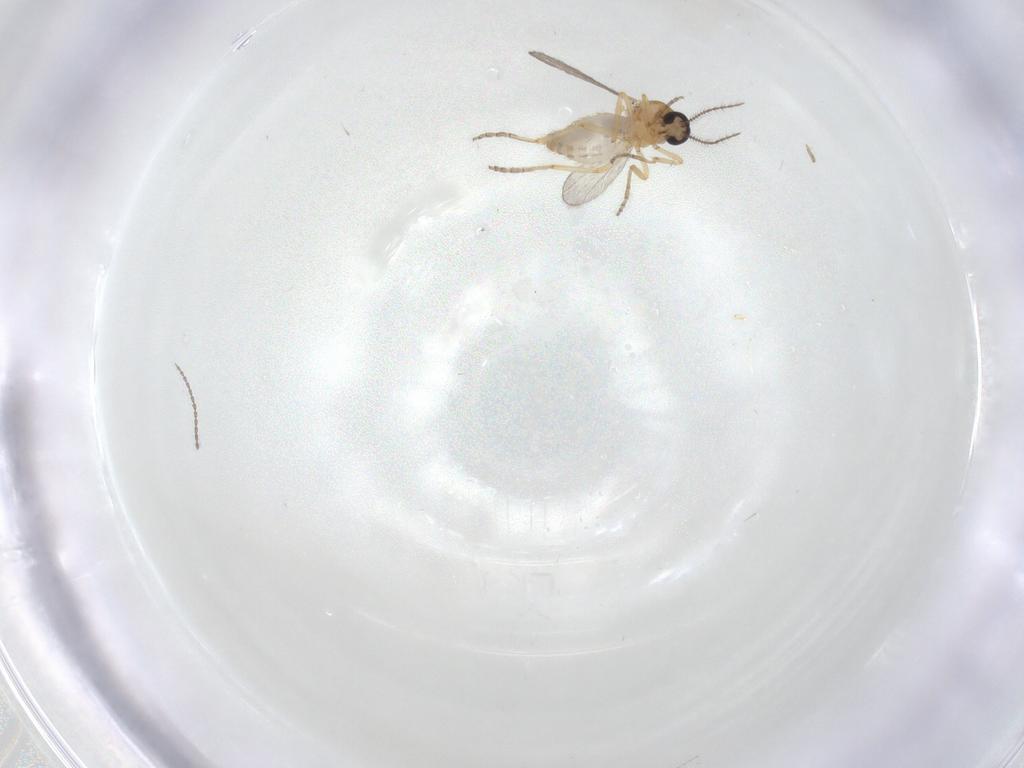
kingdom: Animalia
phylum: Arthropoda
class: Insecta
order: Diptera
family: Ceratopogonidae
